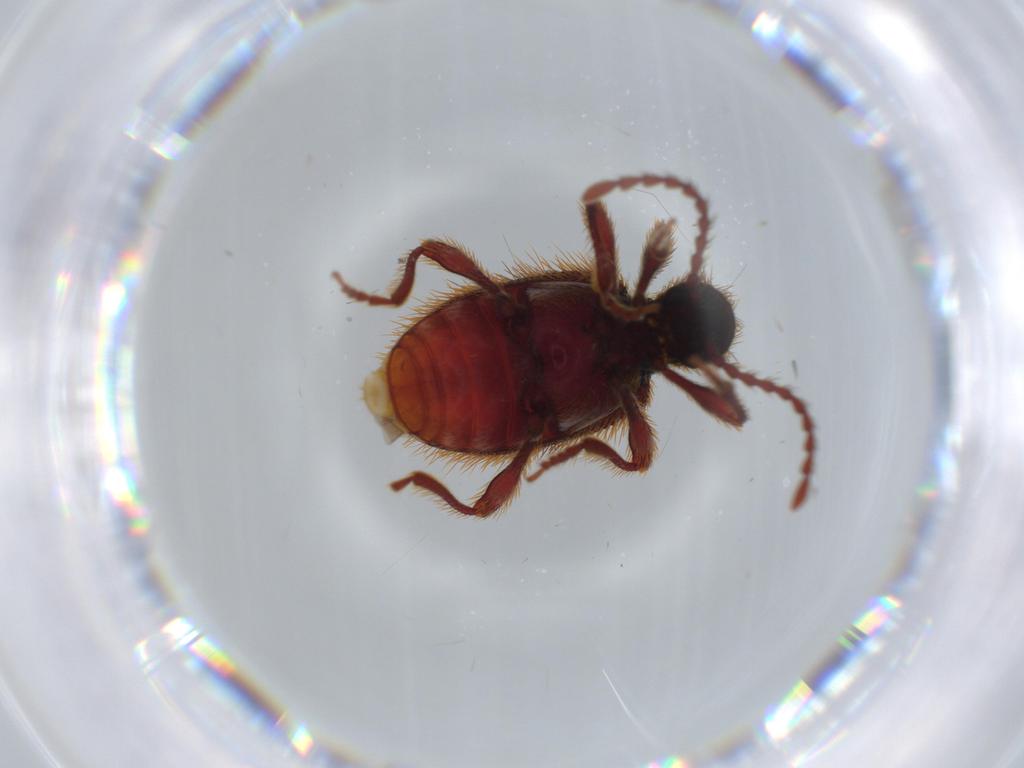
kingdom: Animalia
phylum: Arthropoda
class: Insecta
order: Coleoptera
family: Ptinidae
